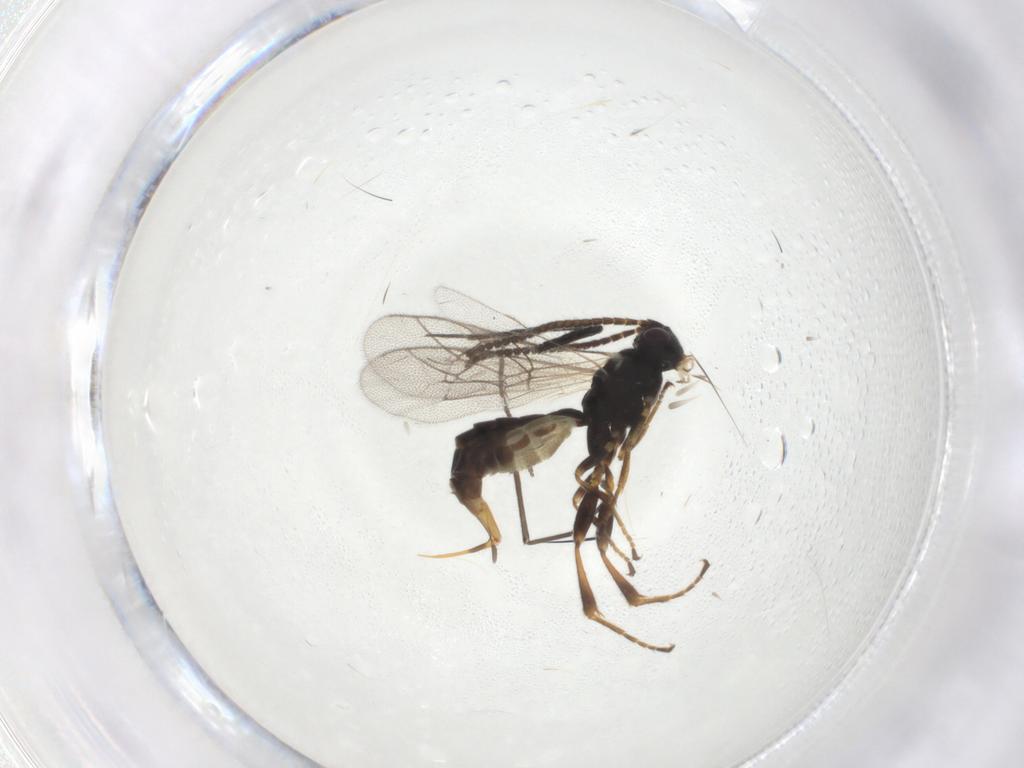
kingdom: Animalia
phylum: Arthropoda
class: Insecta
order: Hymenoptera
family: Ichneumonidae
